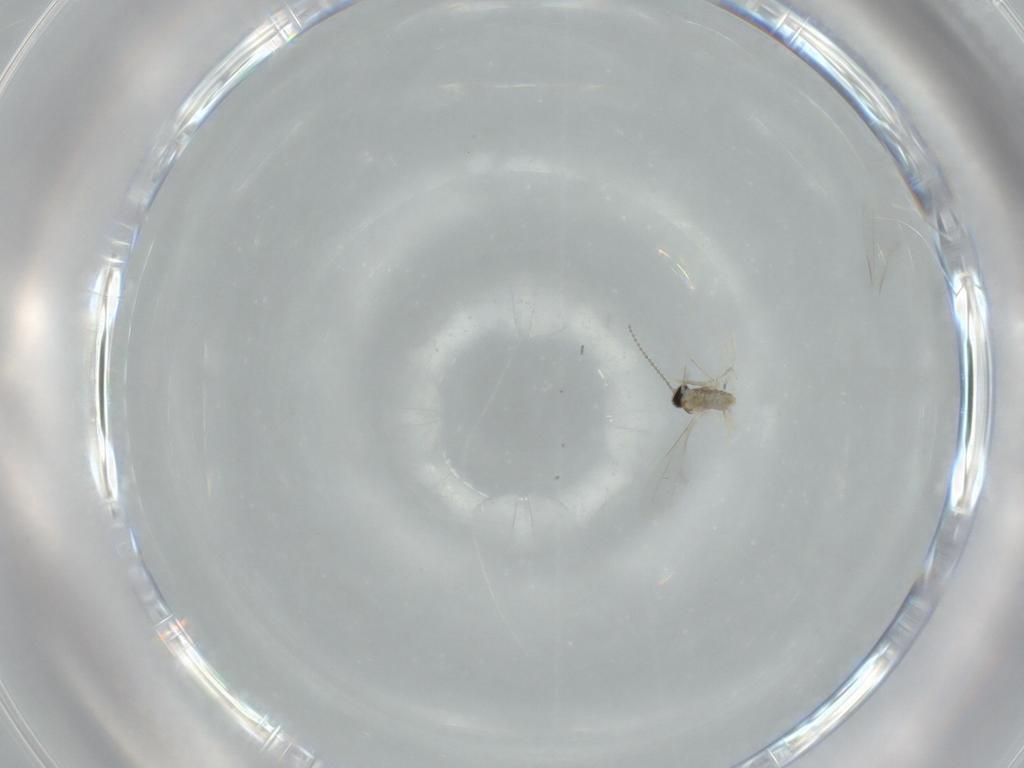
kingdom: Animalia
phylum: Arthropoda
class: Insecta
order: Diptera
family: Cecidomyiidae
